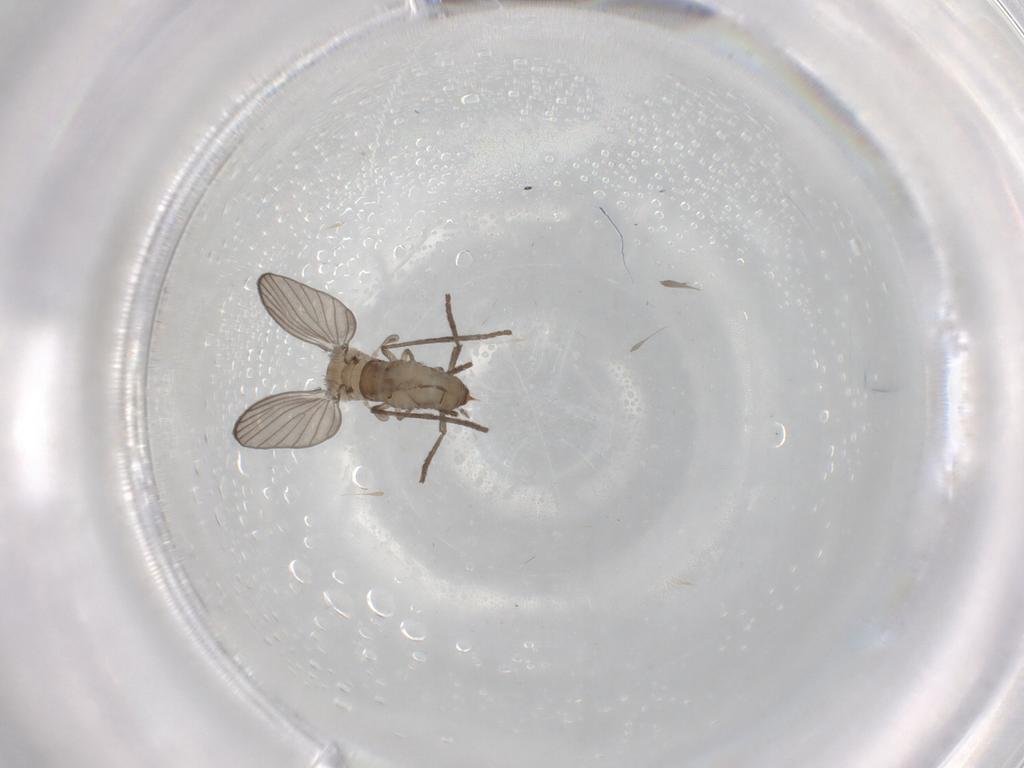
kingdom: Animalia
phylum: Arthropoda
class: Insecta
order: Diptera
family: Psychodidae
